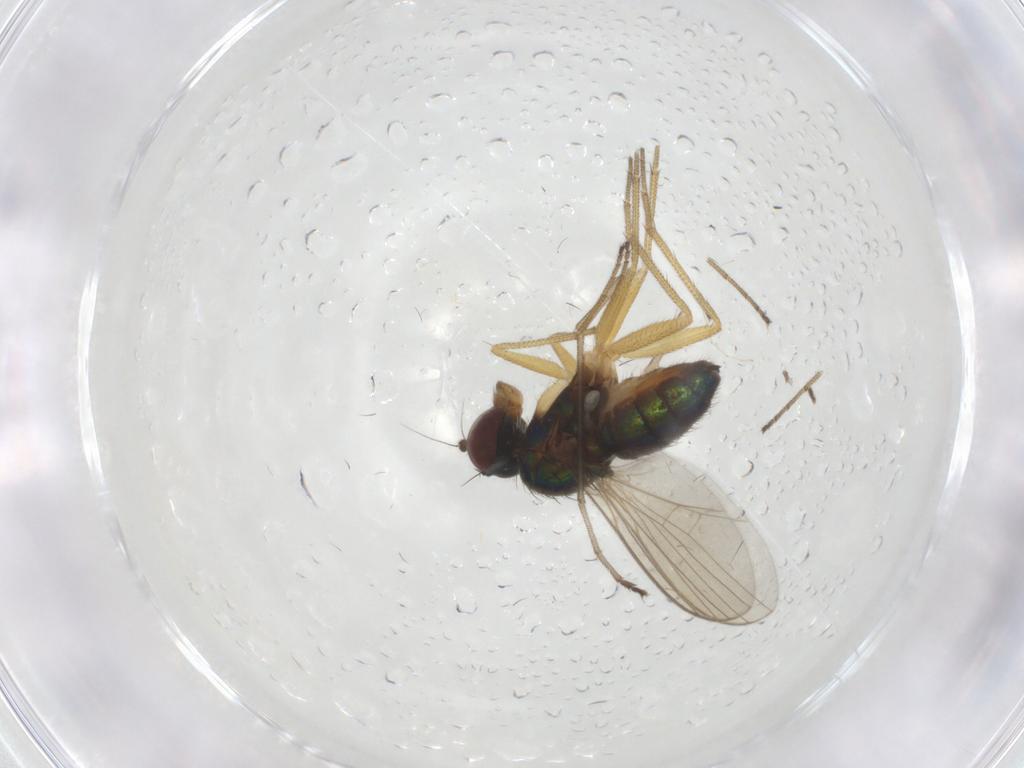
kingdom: Animalia
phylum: Arthropoda
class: Insecta
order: Diptera
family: Dolichopodidae
